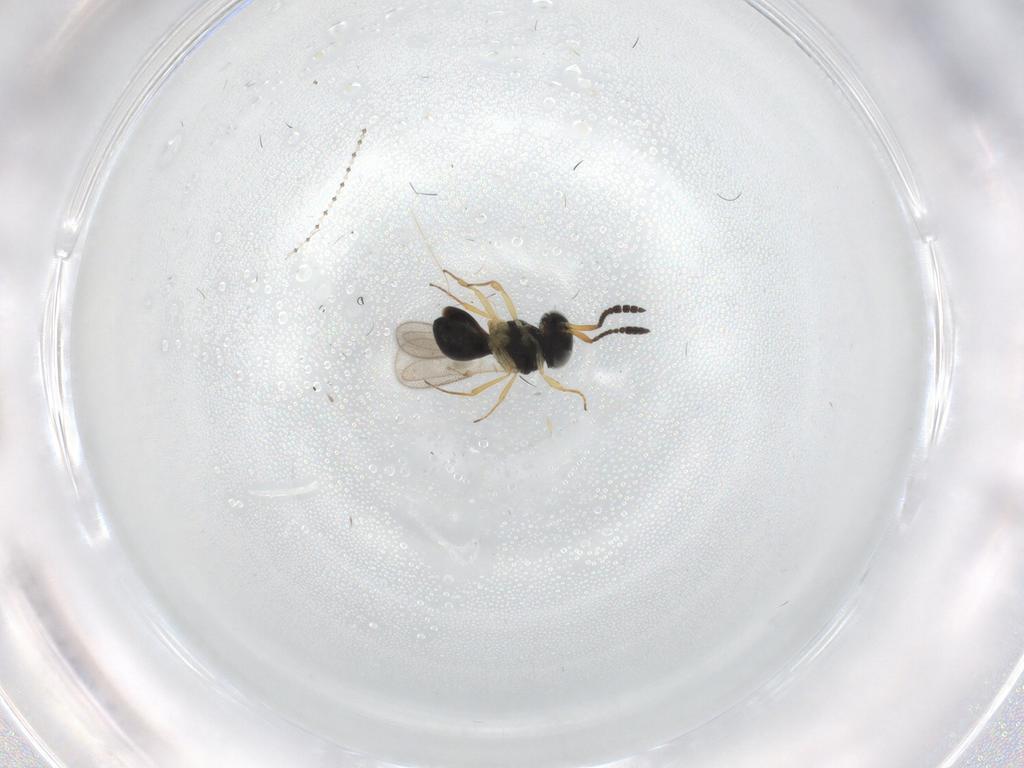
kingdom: Animalia
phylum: Arthropoda
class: Insecta
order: Hymenoptera
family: Scelionidae
